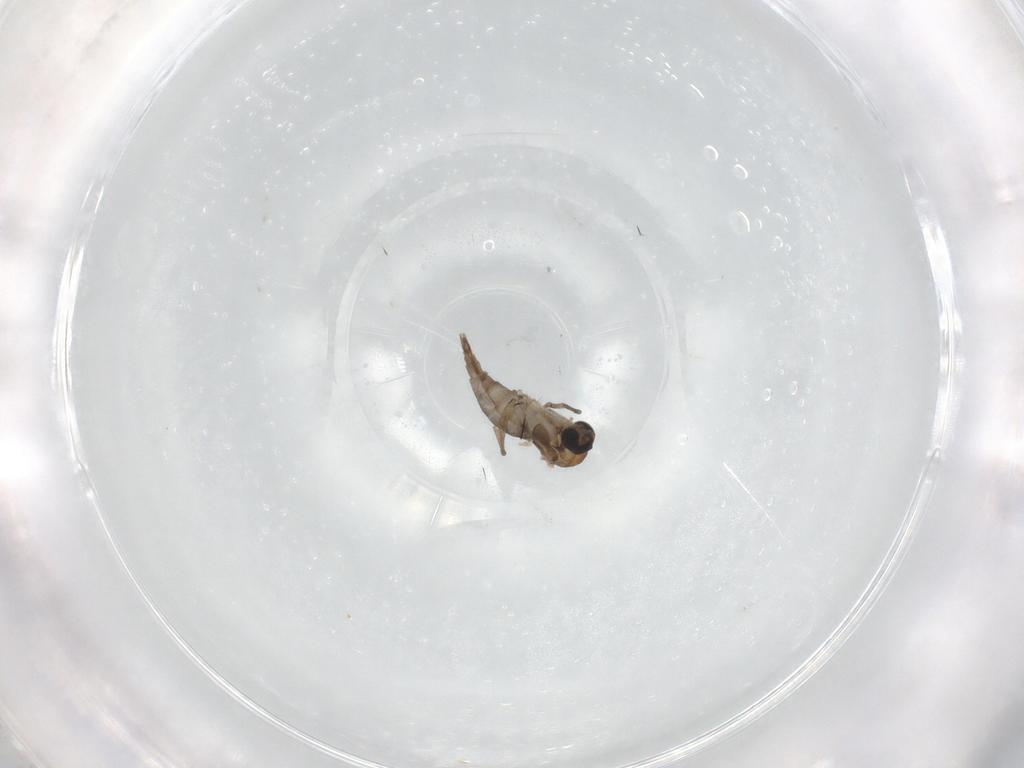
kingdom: Animalia
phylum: Arthropoda
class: Insecta
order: Diptera
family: Sciaridae
